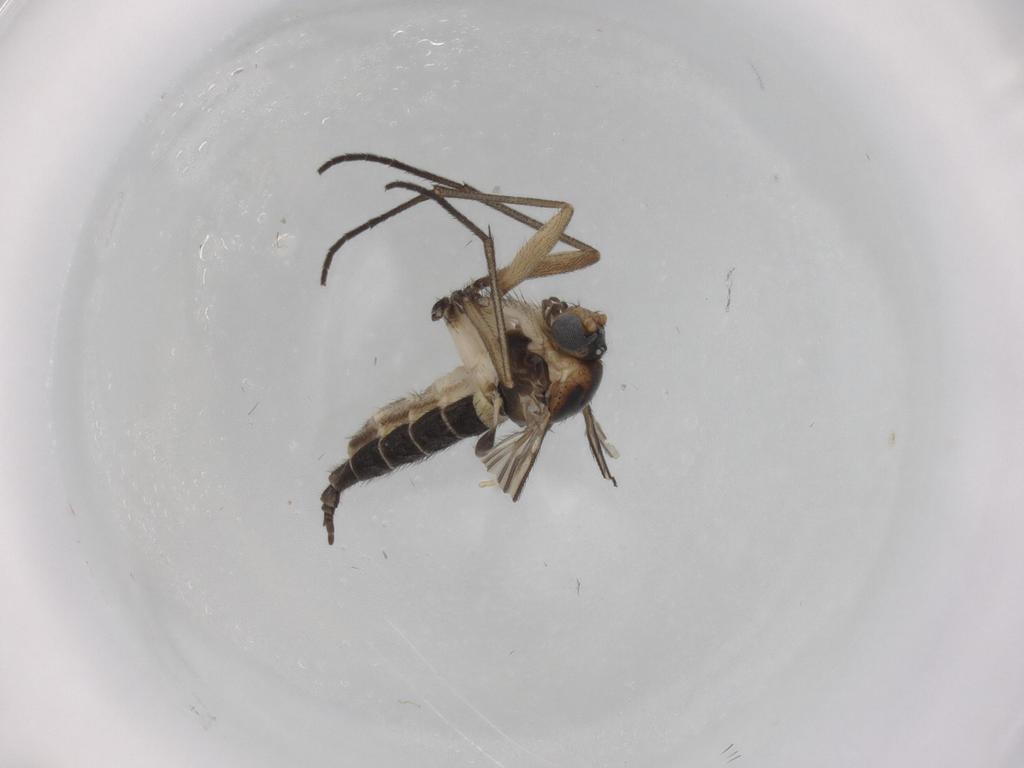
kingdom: Animalia
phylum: Arthropoda
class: Insecta
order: Diptera
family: Sciaridae
